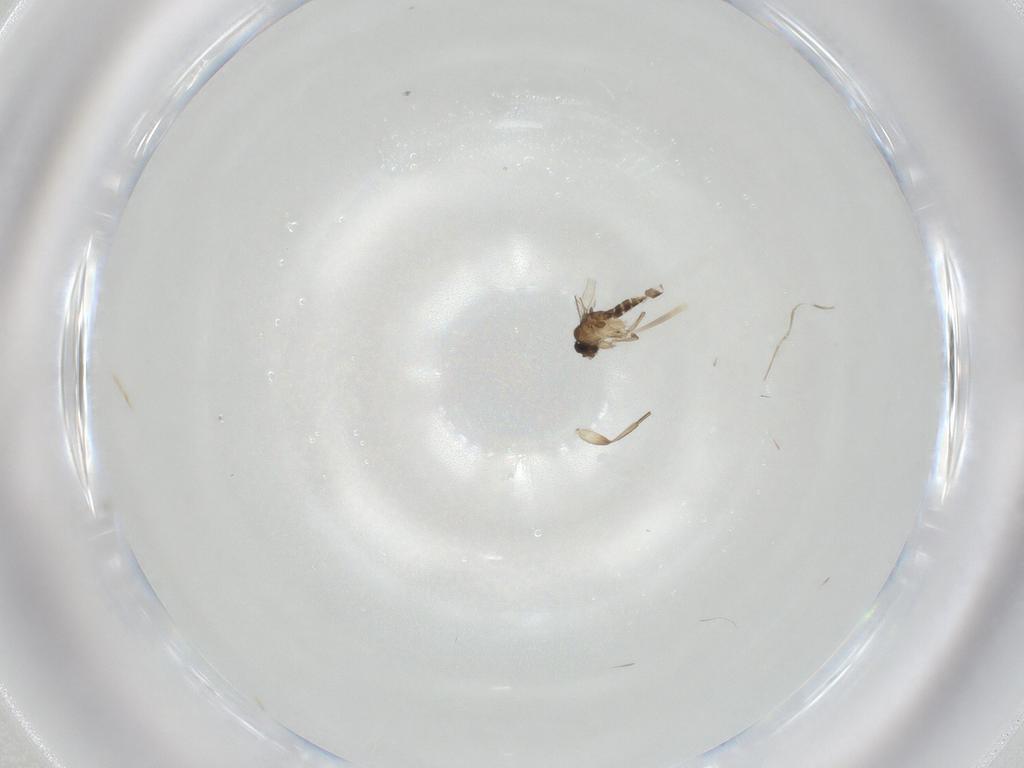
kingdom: Animalia
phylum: Arthropoda
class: Insecta
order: Diptera
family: Phoridae
